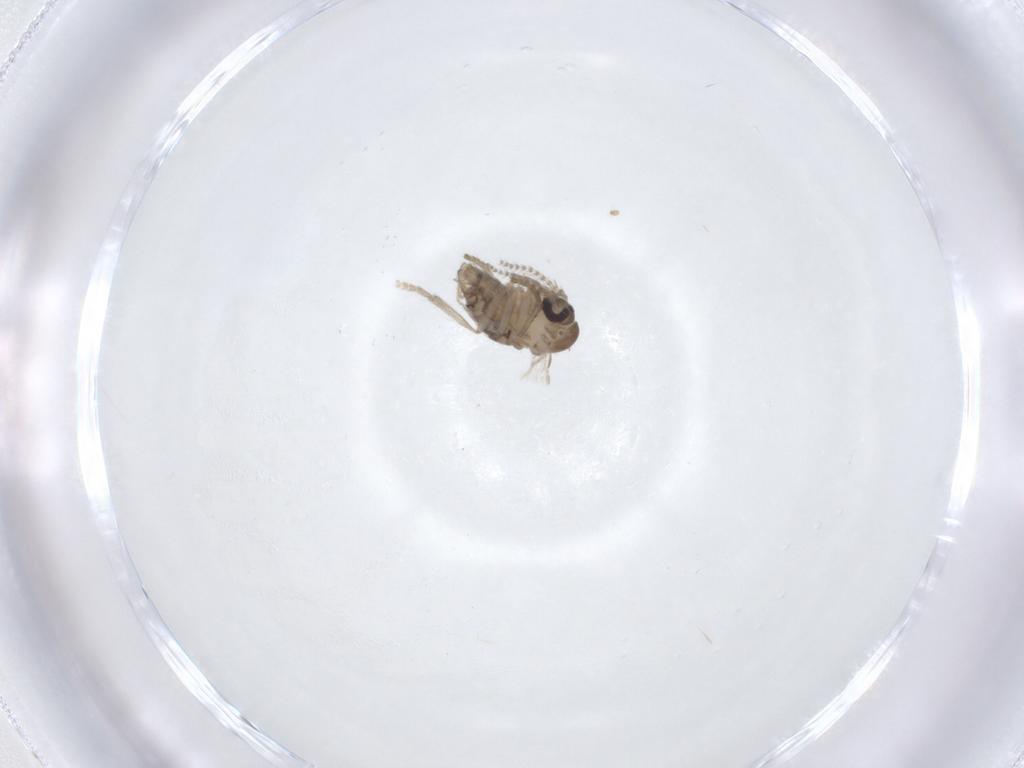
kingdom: Animalia
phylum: Arthropoda
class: Insecta
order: Diptera
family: Psychodidae
